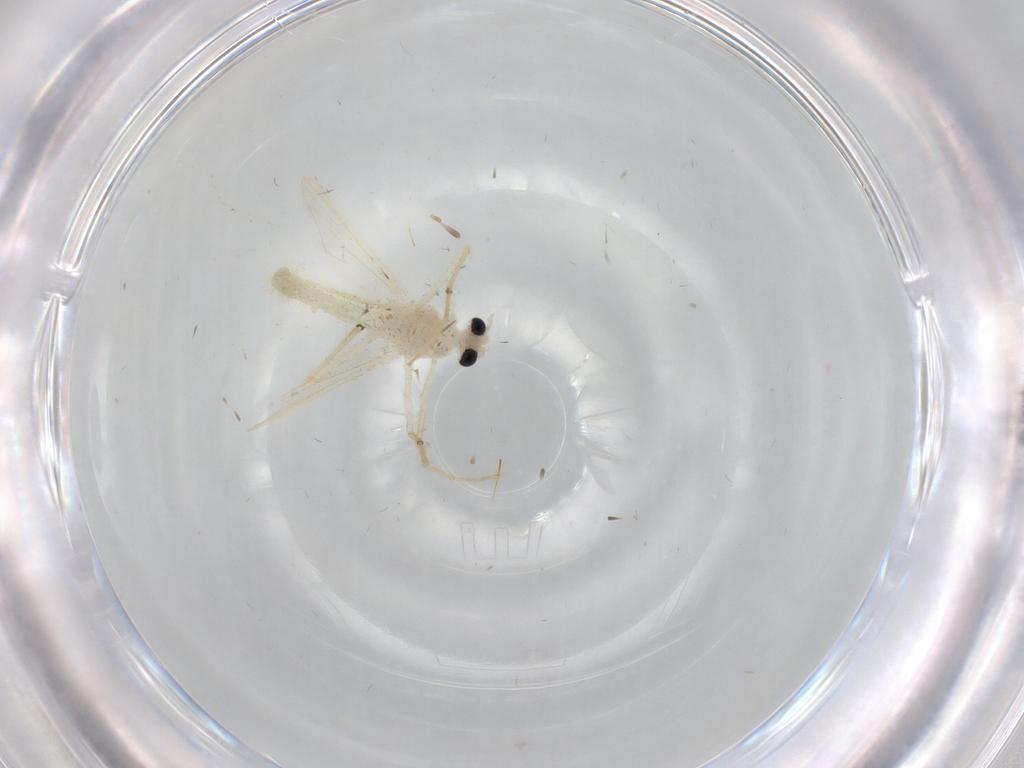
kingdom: Animalia
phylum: Arthropoda
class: Insecta
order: Diptera
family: Chironomidae
